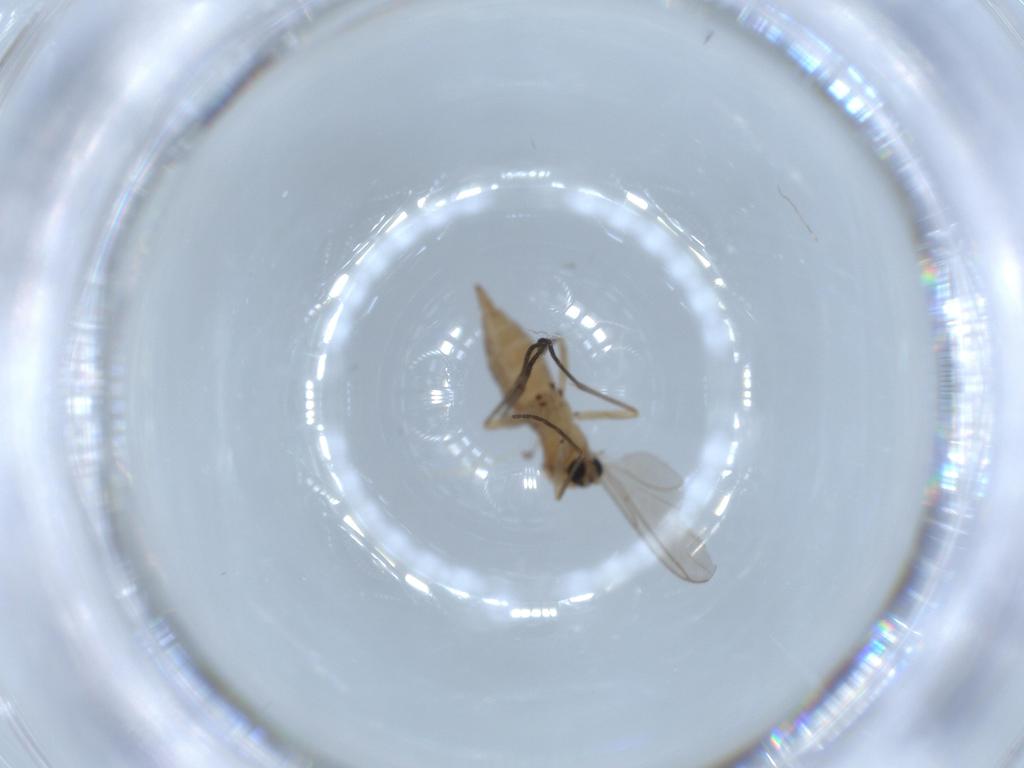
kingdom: Animalia
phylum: Arthropoda
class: Insecta
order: Diptera
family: Sciaridae
